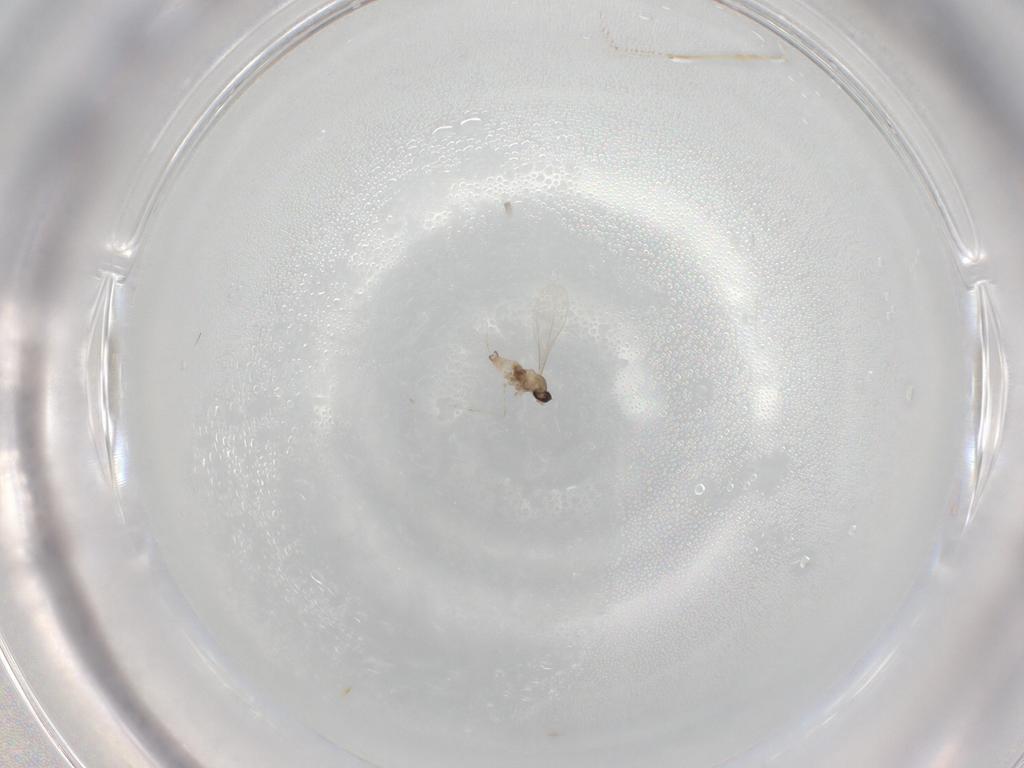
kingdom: Animalia
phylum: Arthropoda
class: Insecta
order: Diptera
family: Cecidomyiidae
